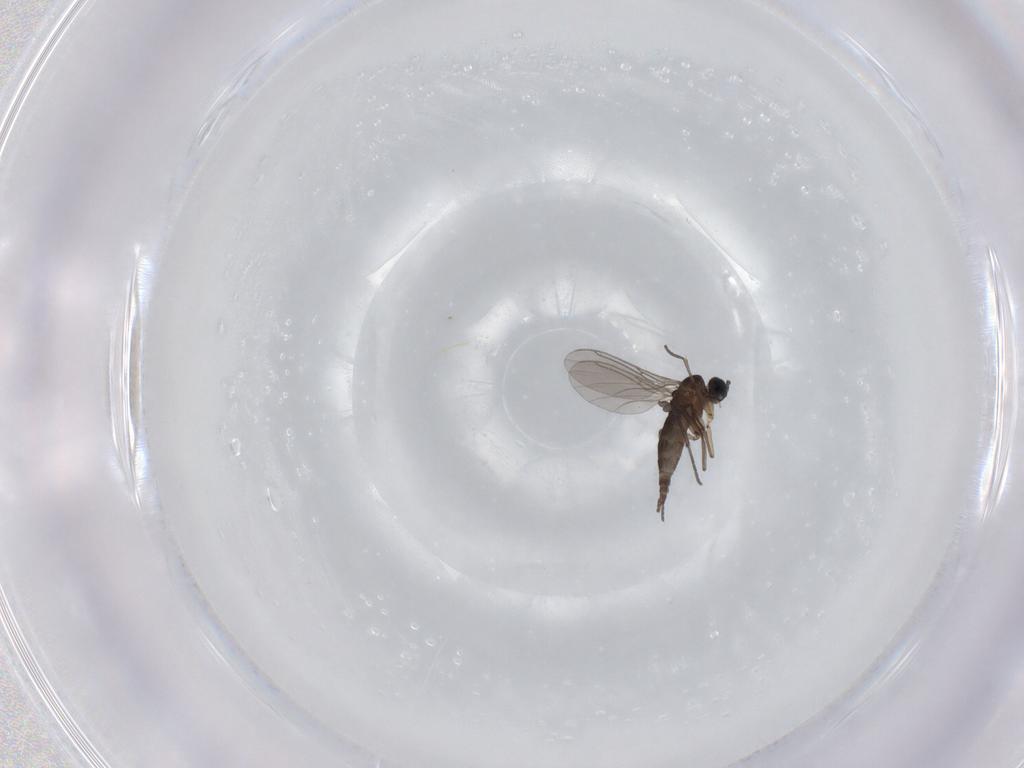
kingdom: Animalia
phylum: Arthropoda
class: Insecta
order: Diptera
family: Sciaridae
